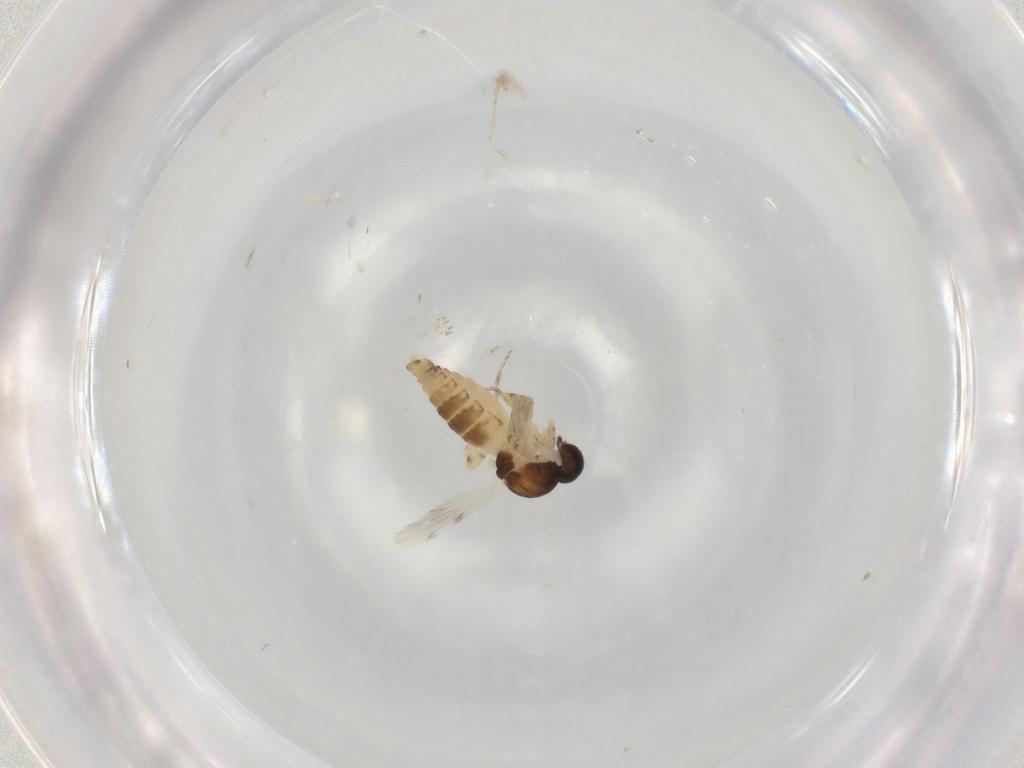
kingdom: Animalia
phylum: Arthropoda
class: Insecta
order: Diptera
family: Ceratopogonidae
